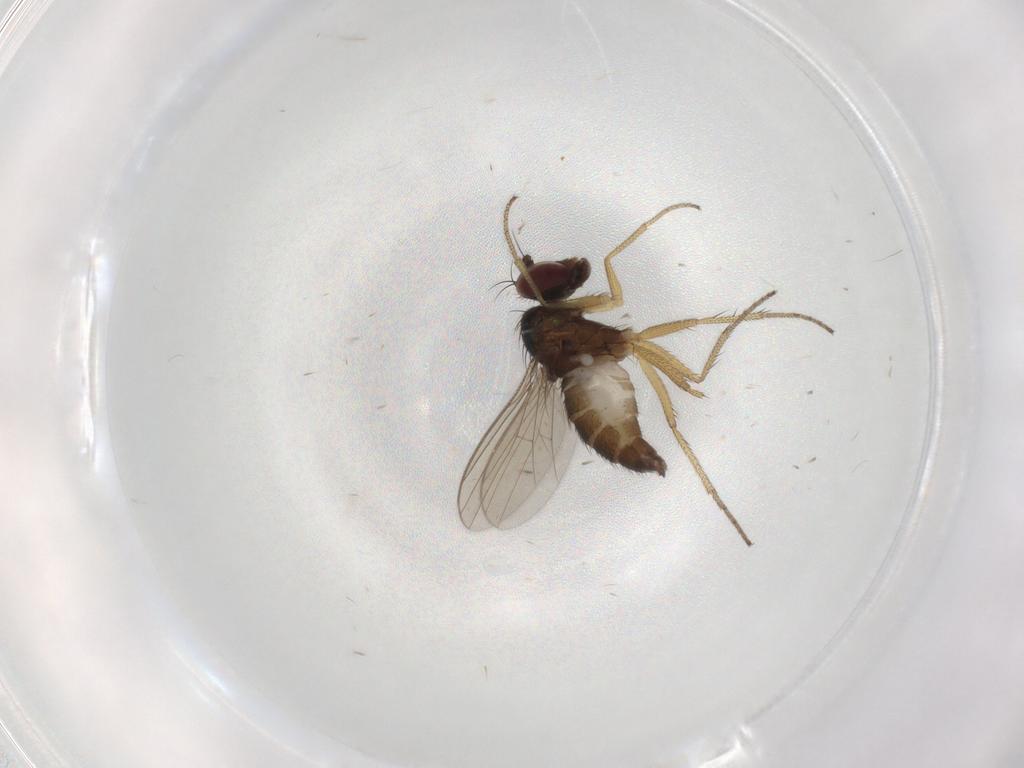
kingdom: Animalia
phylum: Arthropoda
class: Insecta
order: Diptera
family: Dolichopodidae
